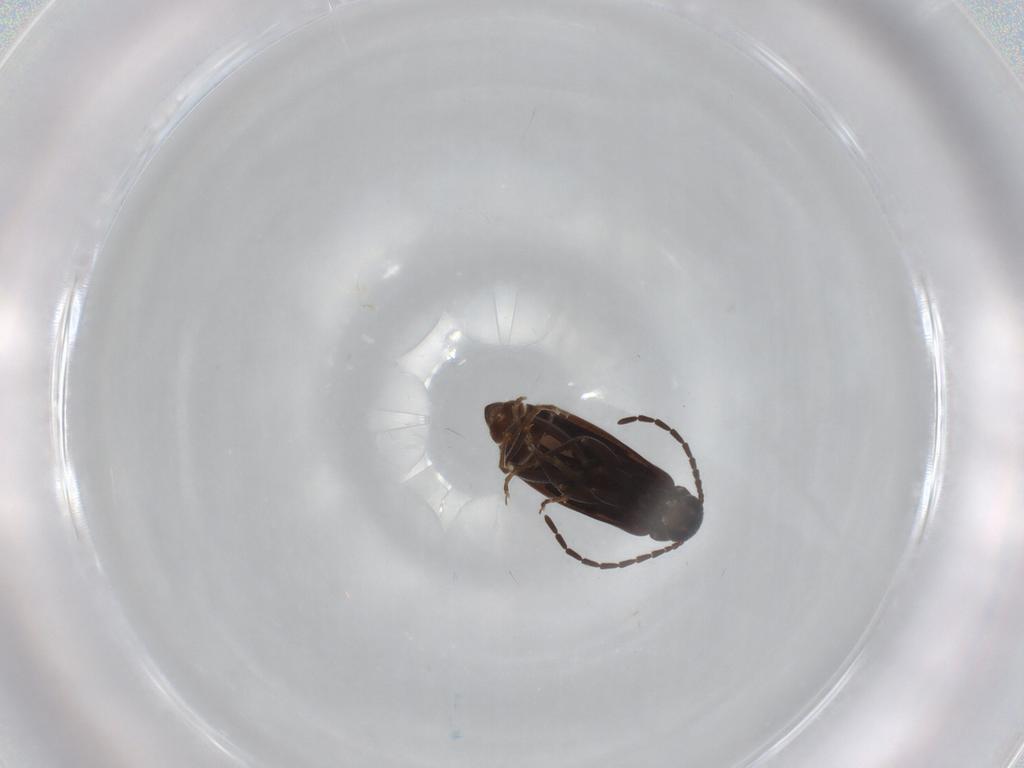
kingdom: Animalia
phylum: Arthropoda
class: Insecta
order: Coleoptera
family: Scraptiidae
